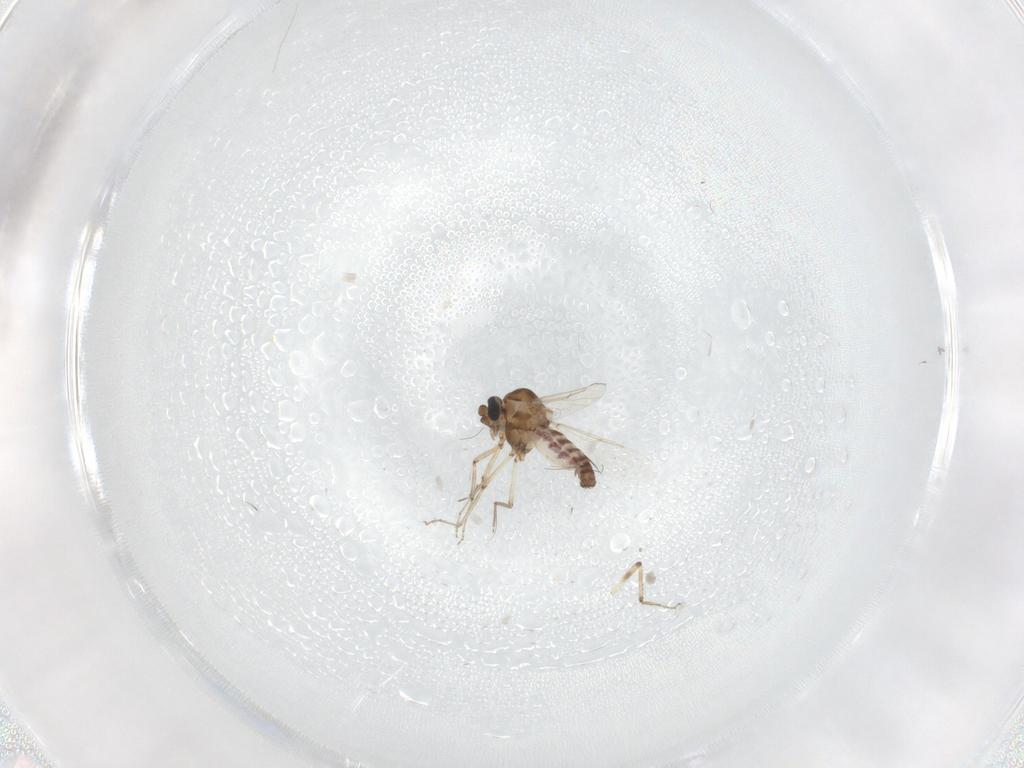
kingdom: Animalia
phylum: Arthropoda
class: Insecta
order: Diptera
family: Ceratopogonidae
